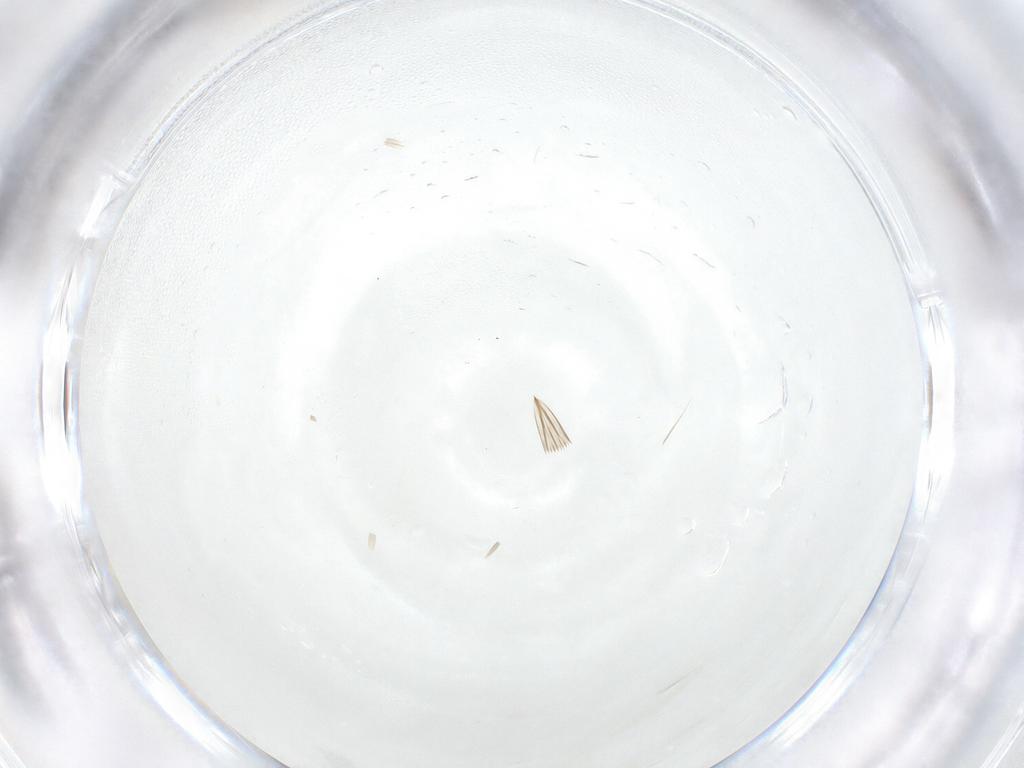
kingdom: Animalia
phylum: Arthropoda
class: Insecta
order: Diptera
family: Cecidomyiidae
